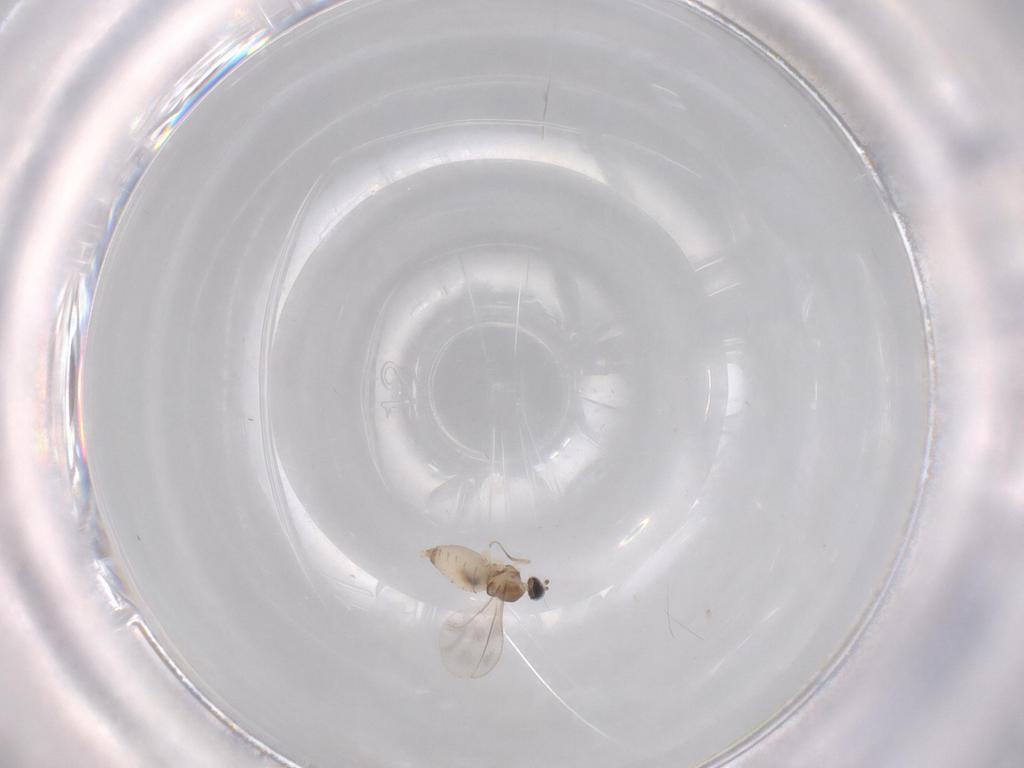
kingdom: Animalia
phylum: Arthropoda
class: Insecta
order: Diptera
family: Cecidomyiidae
